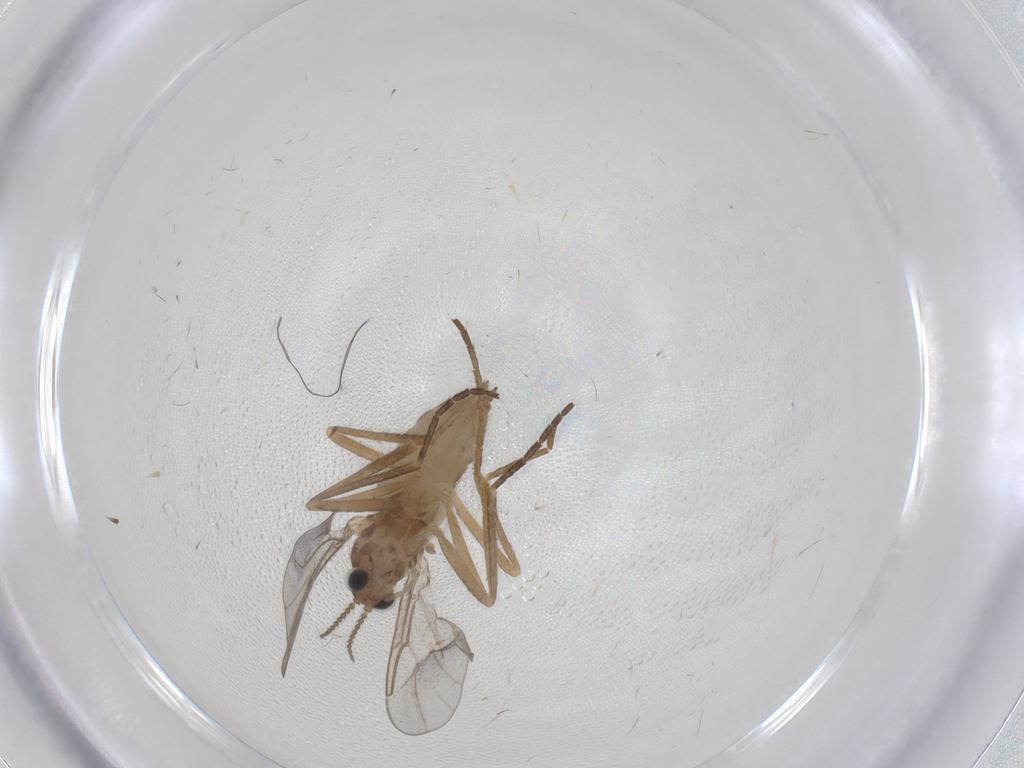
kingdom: Animalia
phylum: Arthropoda
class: Insecta
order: Diptera
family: Cecidomyiidae
